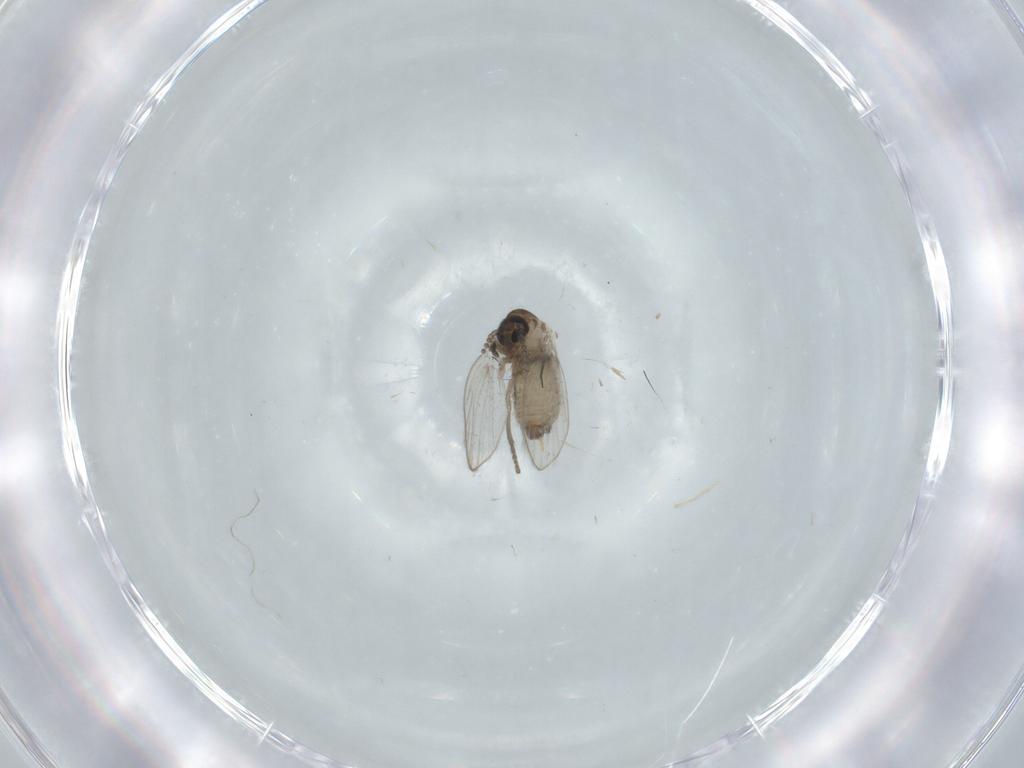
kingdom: Animalia
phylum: Arthropoda
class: Insecta
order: Diptera
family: Psychodidae
